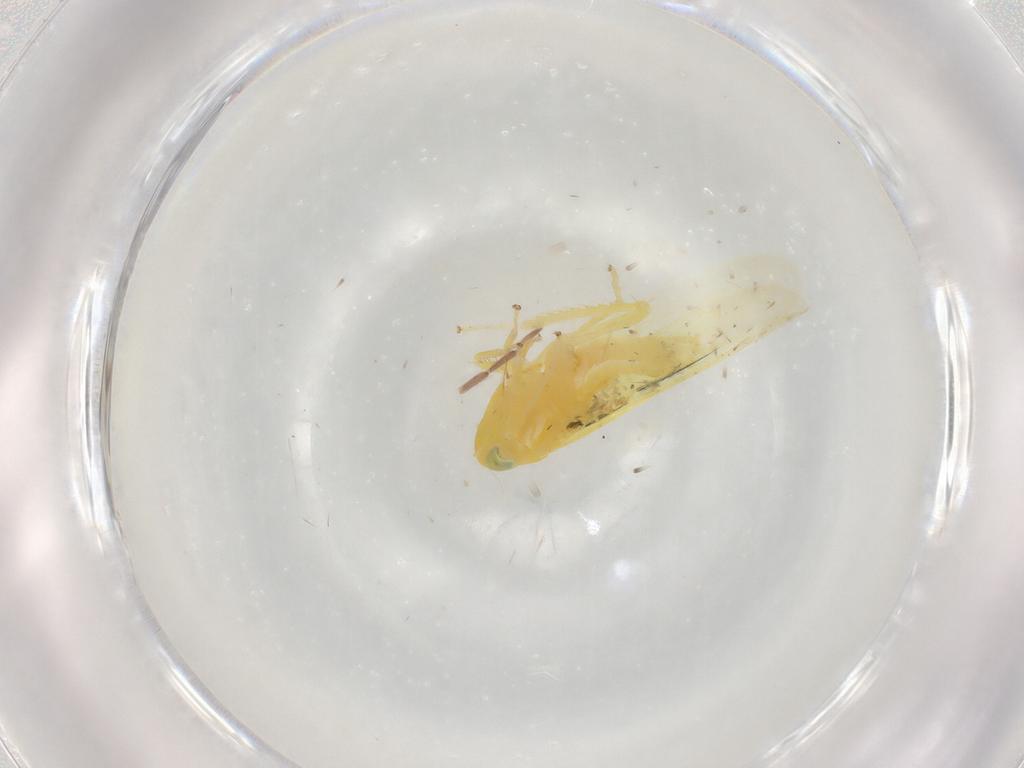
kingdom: Animalia
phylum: Arthropoda
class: Insecta
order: Hemiptera
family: Cicadellidae
